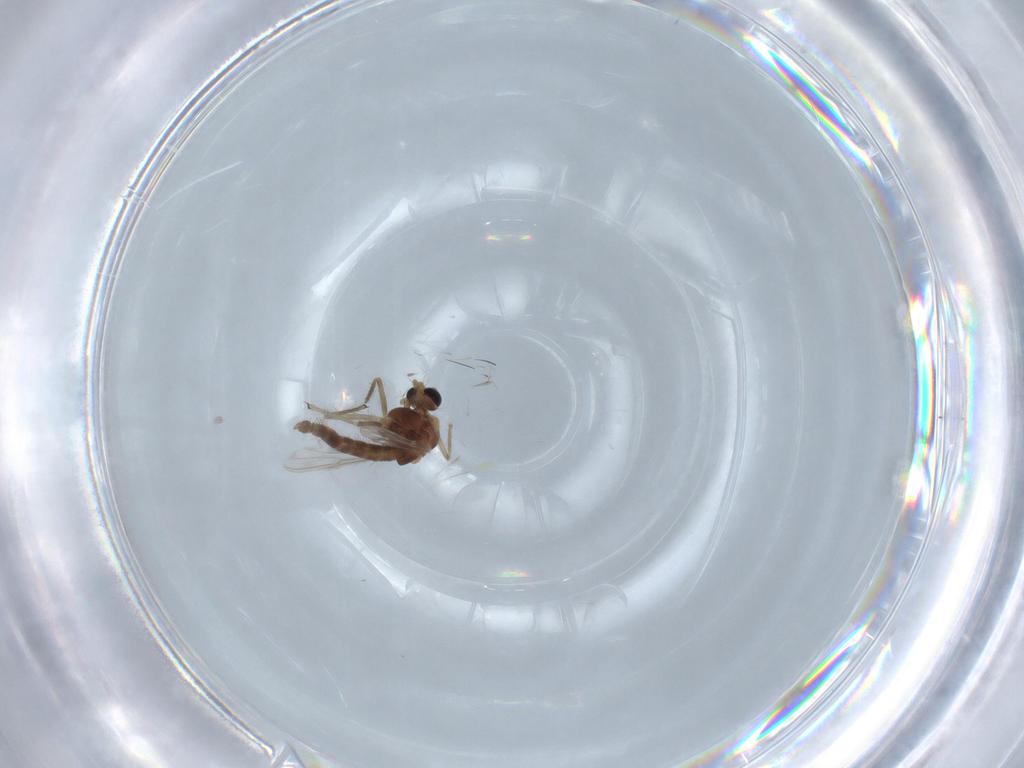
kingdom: Animalia
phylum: Arthropoda
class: Insecta
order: Diptera
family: Chironomidae
